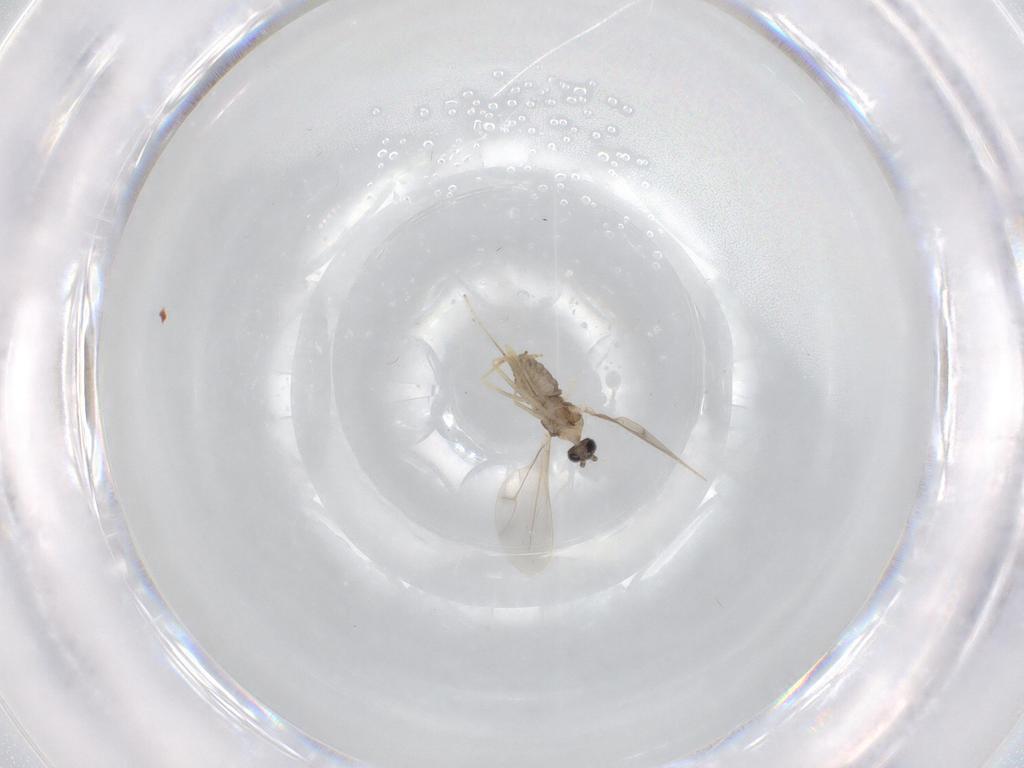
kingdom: Animalia
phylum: Arthropoda
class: Insecta
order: Diptera
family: Cecidomyiidae
